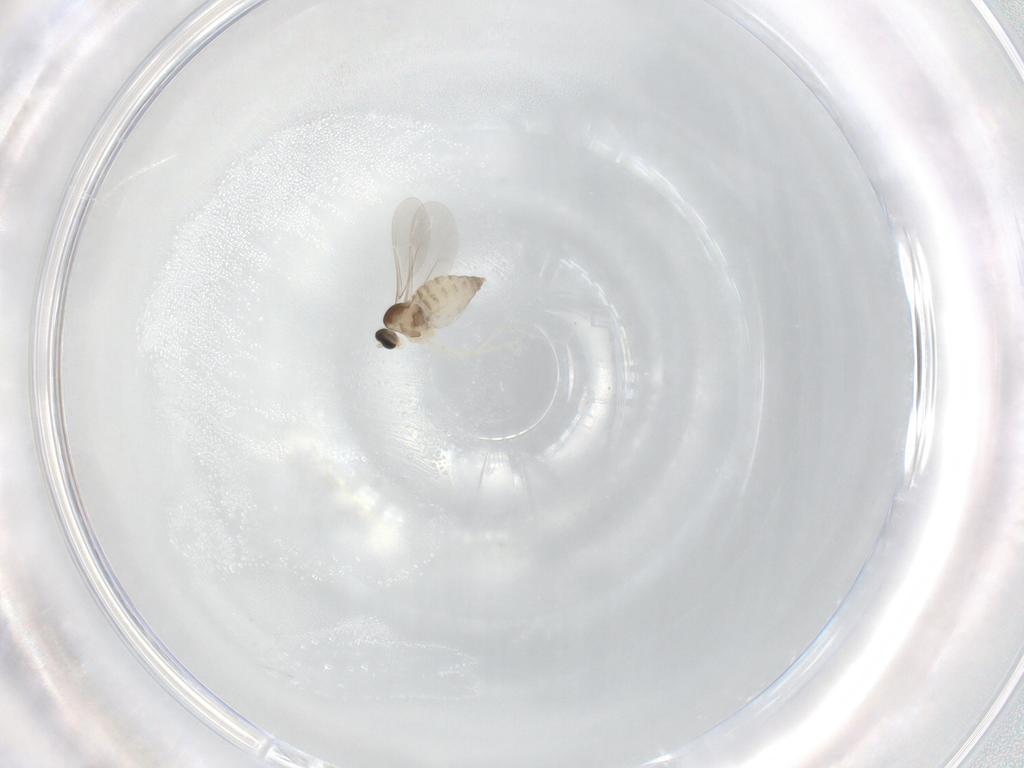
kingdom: Animalia
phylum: Arthropoda
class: Insecta
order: Diptera
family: Cecidomyiidae
